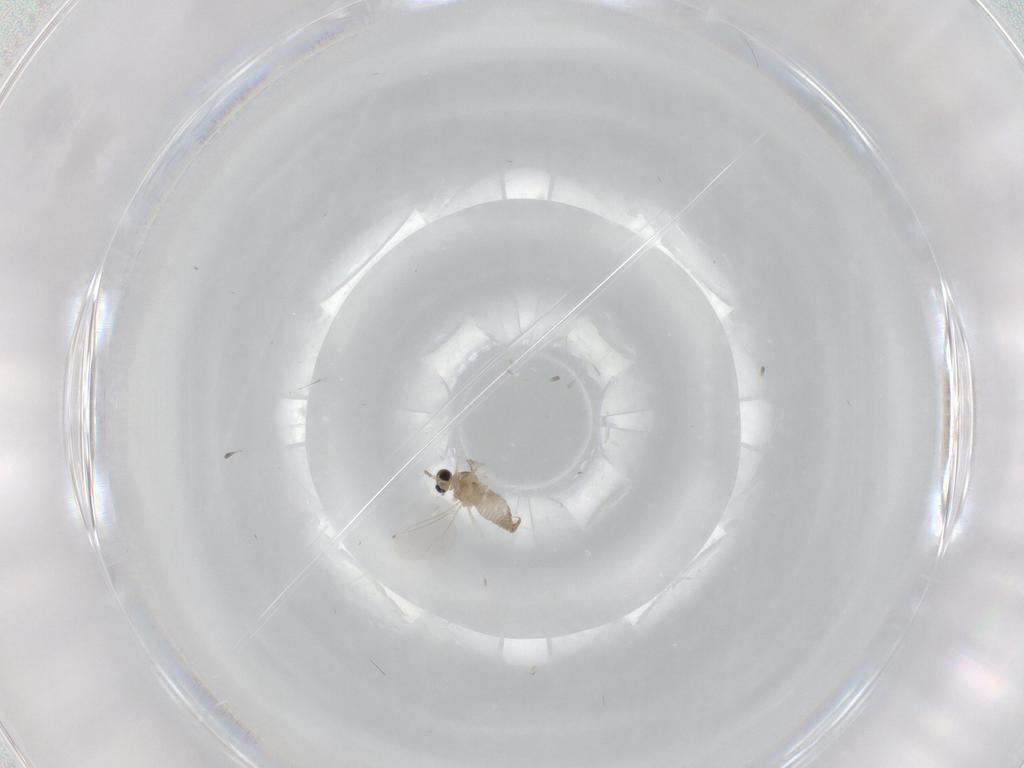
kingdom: Animalia
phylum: Arthropoda
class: Insecta
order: Diptera
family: Cecidomyiidae
